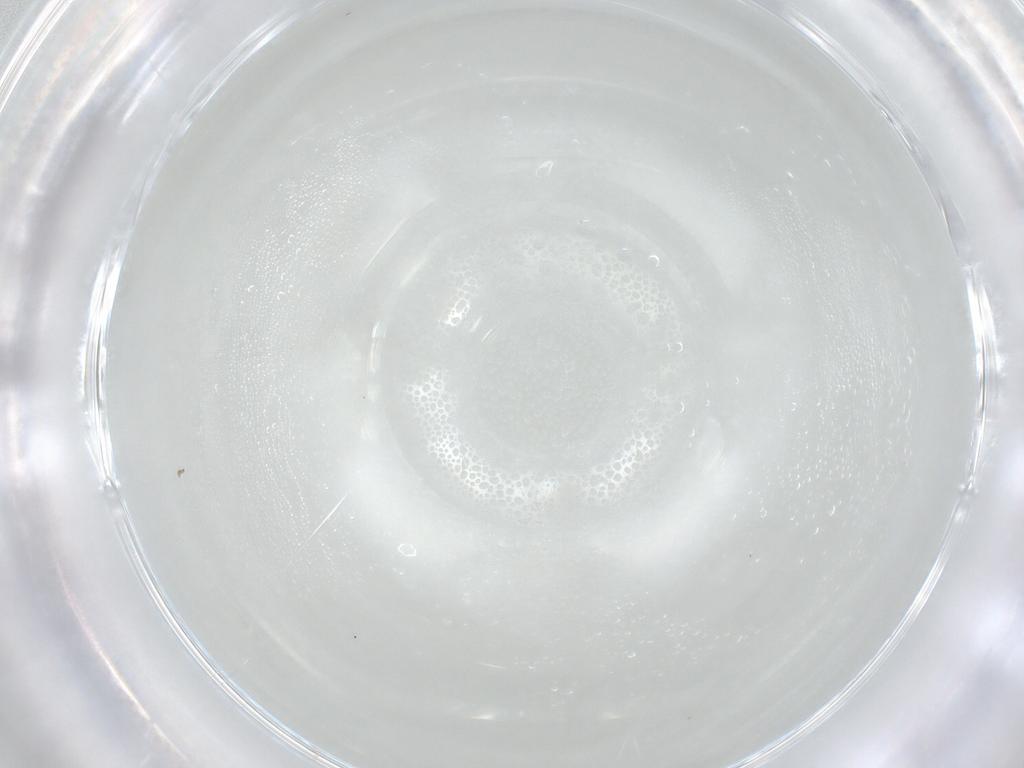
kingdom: Animalia
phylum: Arthropoda
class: Insecta
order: Hemiptera
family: Aphididae
